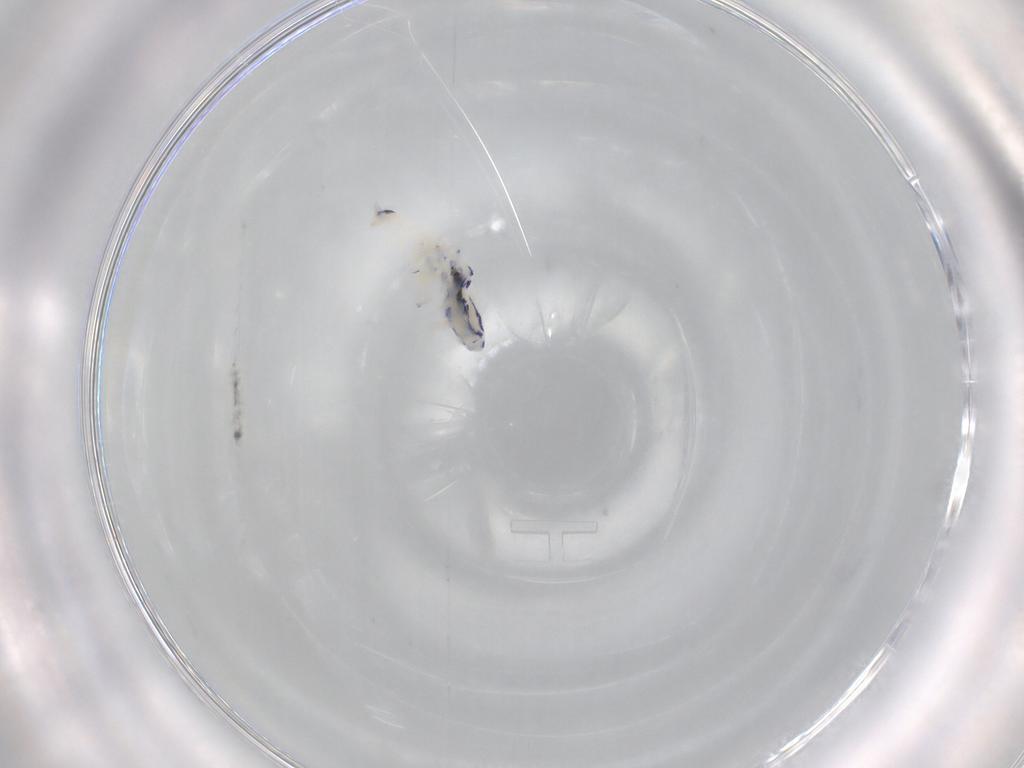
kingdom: Animalia
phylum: Arthropoda
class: Collembola
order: Entomobryomorpha
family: Entomobryidae
